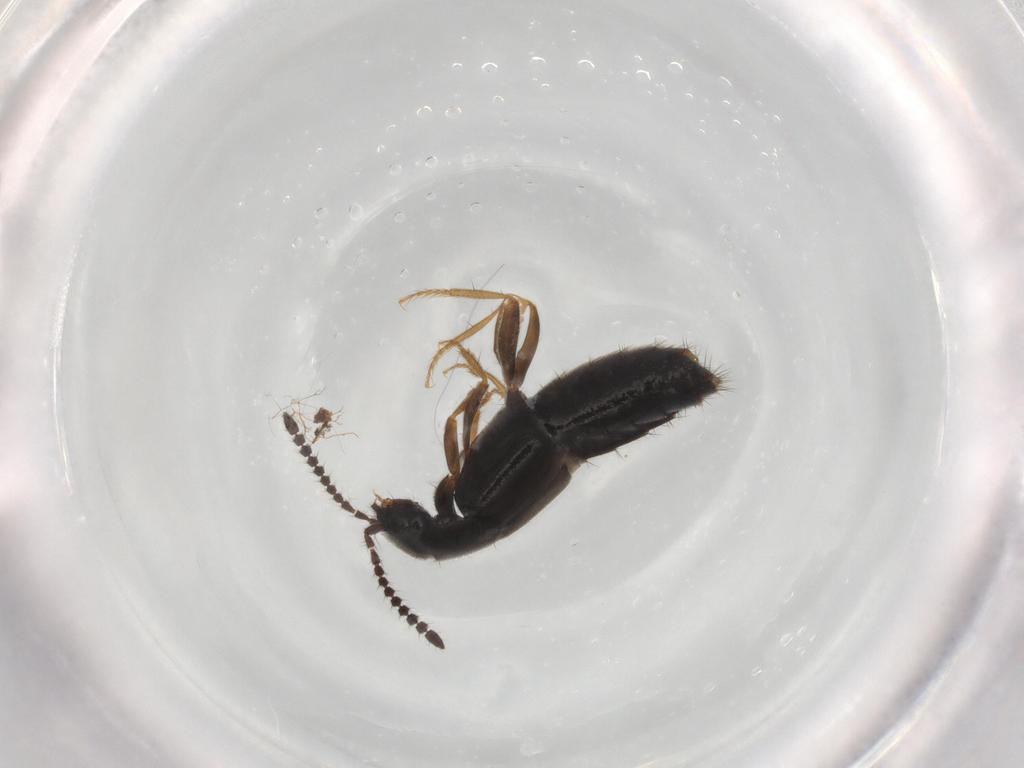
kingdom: Animalia
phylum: Arthropoda
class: Insecta
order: Coleoptera
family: Staphylinidae
